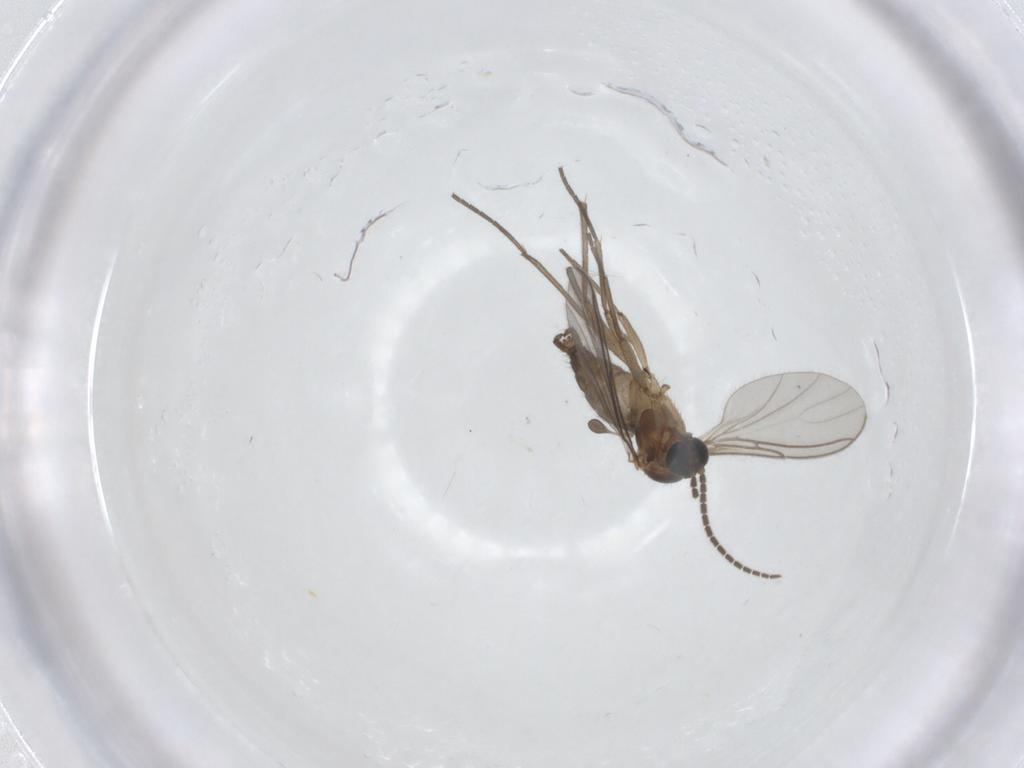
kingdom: Animalia
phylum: Arthropoda
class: Insecta
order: Diptera
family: Sciaridae
